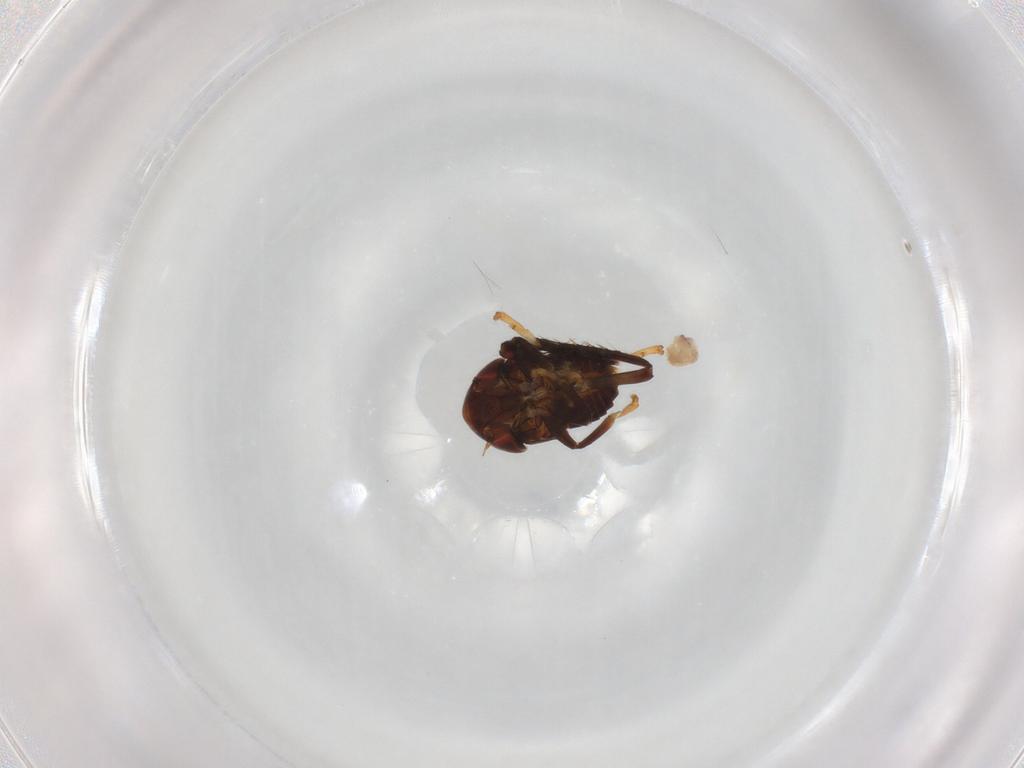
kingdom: Animalia
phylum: Arthropoda
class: Insecta
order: Hemiptera
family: Cicadellidae
